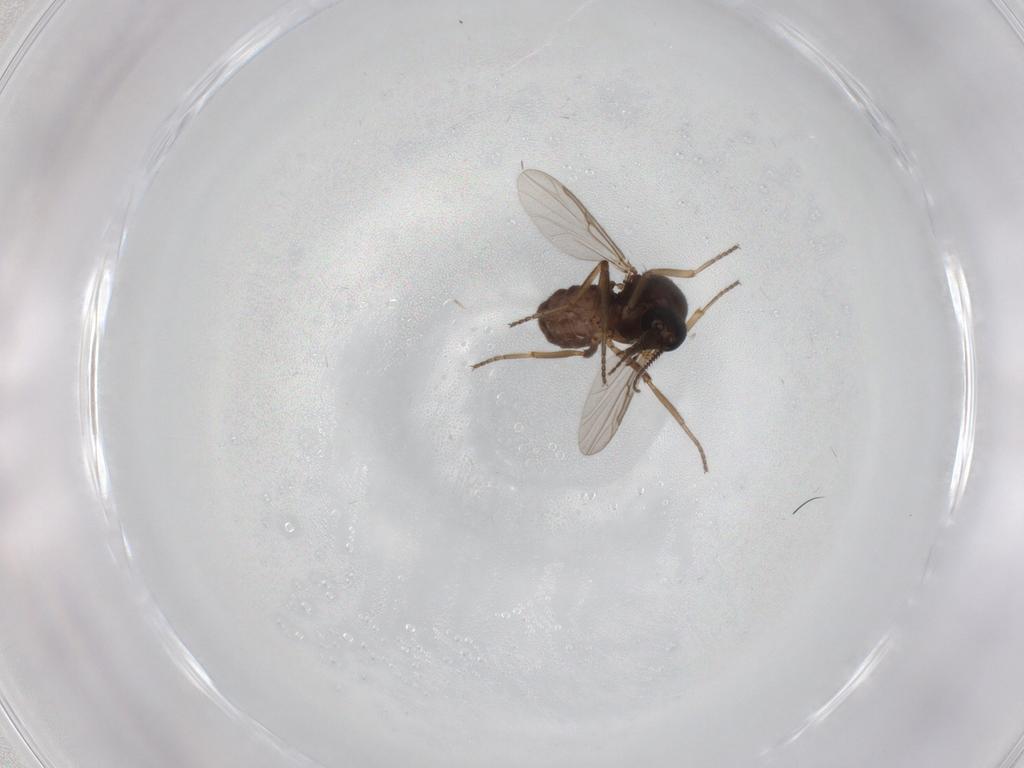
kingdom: Animalia
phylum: Arthropoda
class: Insecta
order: Diptera
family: Ceratopogonidae
